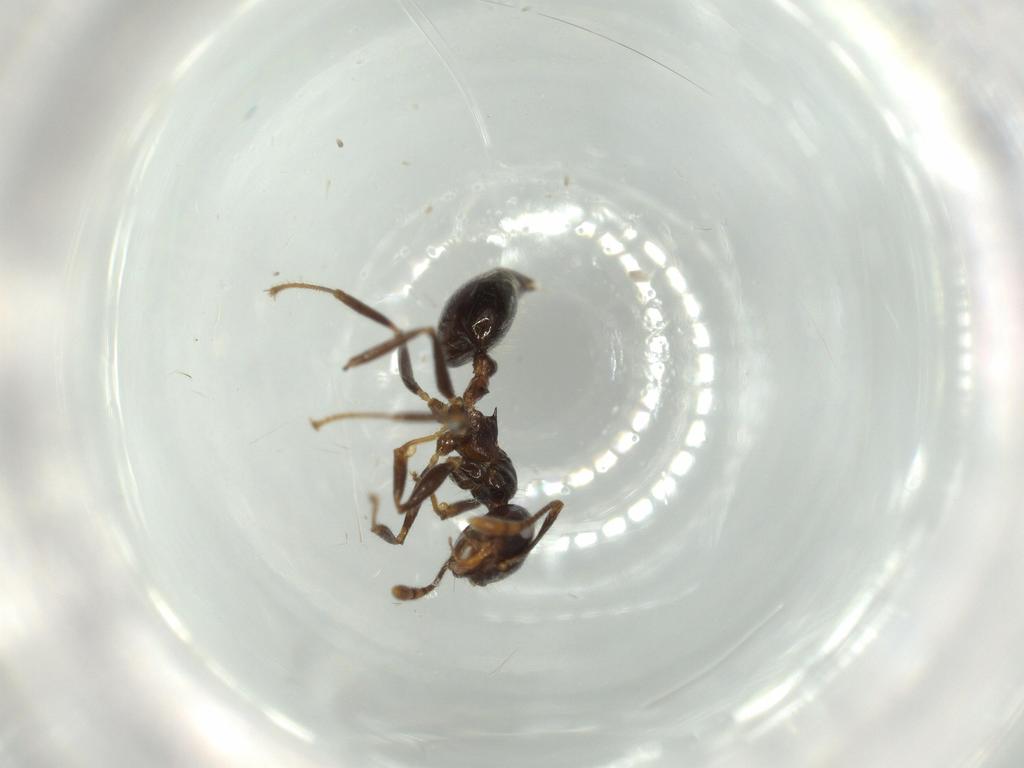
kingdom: Animalia
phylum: Arthropoda
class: Insecta
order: Hymenoptera
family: Formicidae
